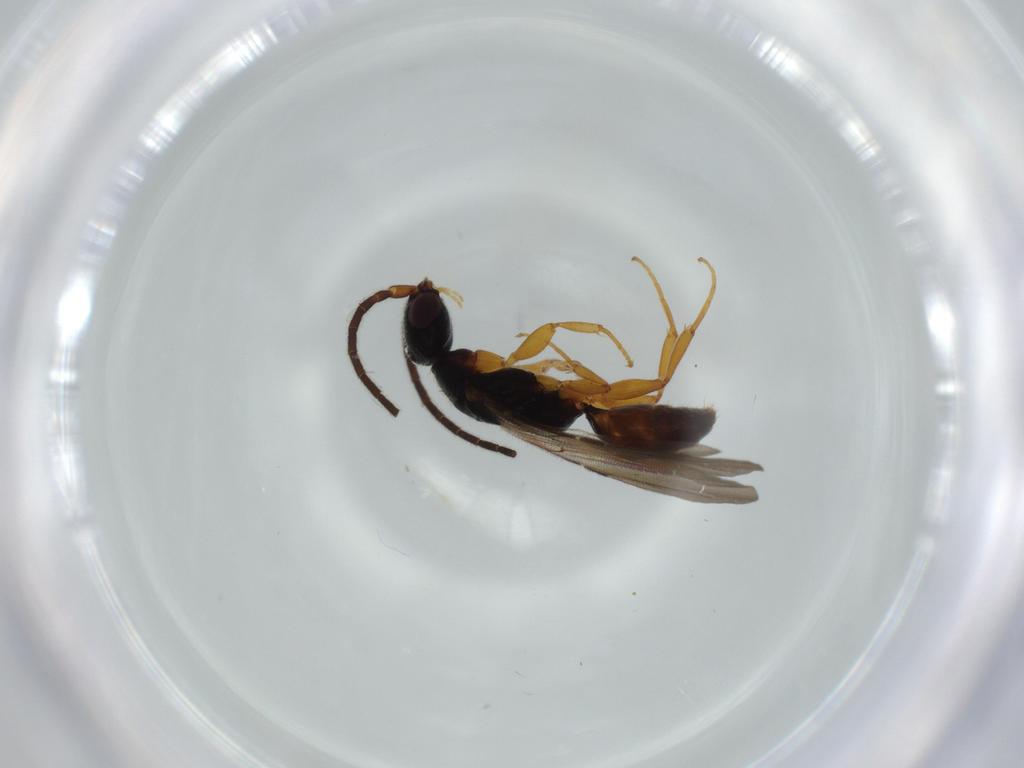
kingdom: Animalia
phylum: Arthropoda
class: Insecta
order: Hymenoptera
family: Bethylidae
